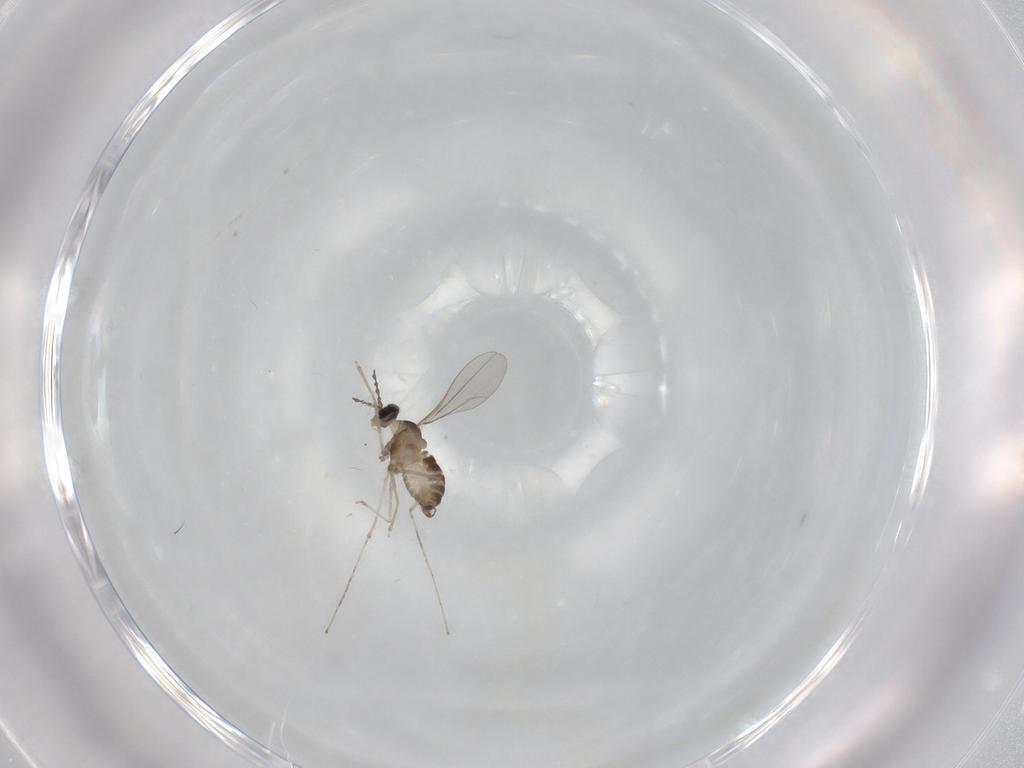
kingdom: Animalia
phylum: Arthropoda
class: Insecta
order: Diptera
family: Cecidomyiidae
